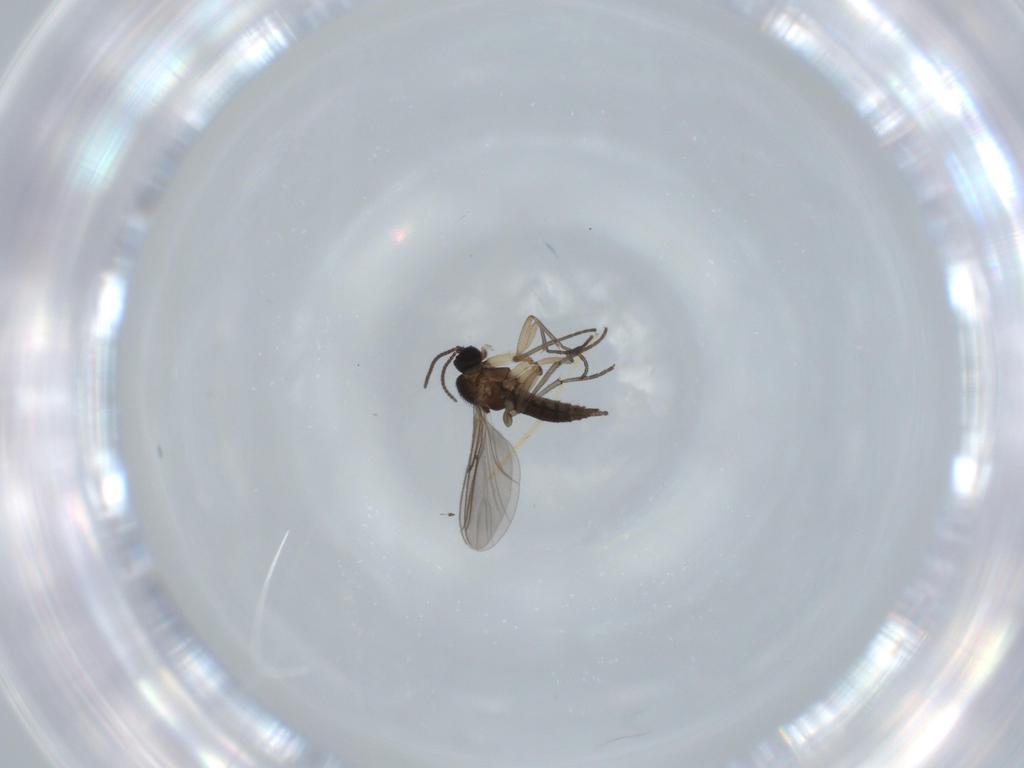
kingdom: Animalia
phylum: Arthropoda
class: Insecta
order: Diptera
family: Sciaridae
